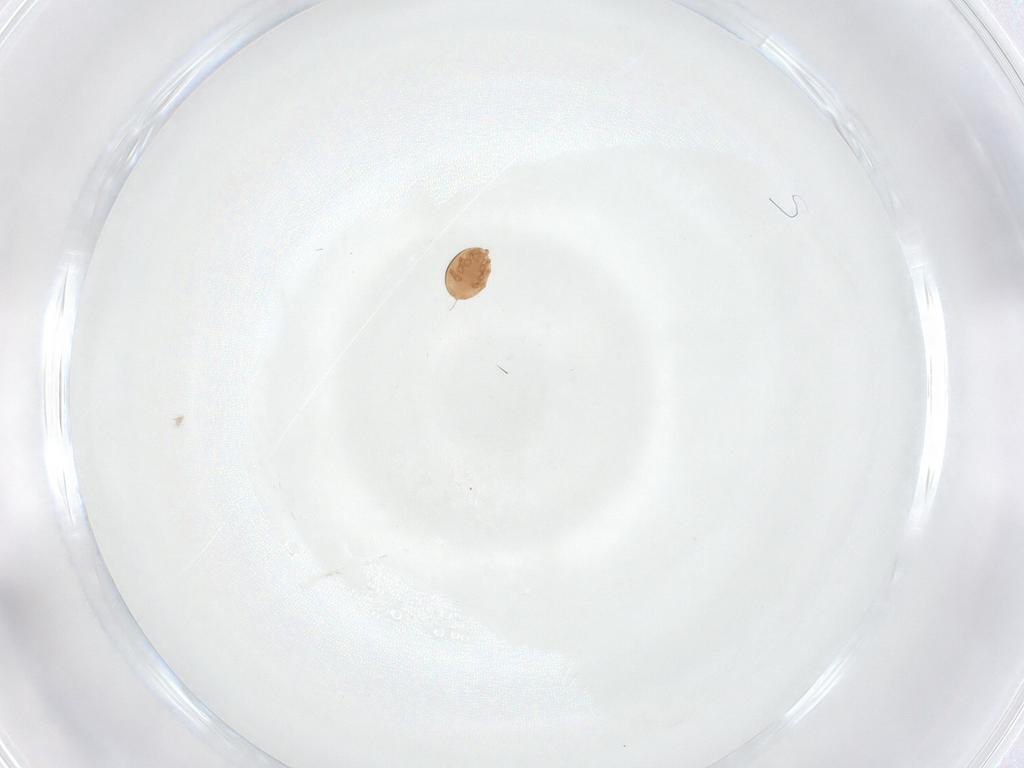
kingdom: Animalia
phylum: Arthropoda
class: Arachnida
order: Mesostigmata
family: Trematuridae
